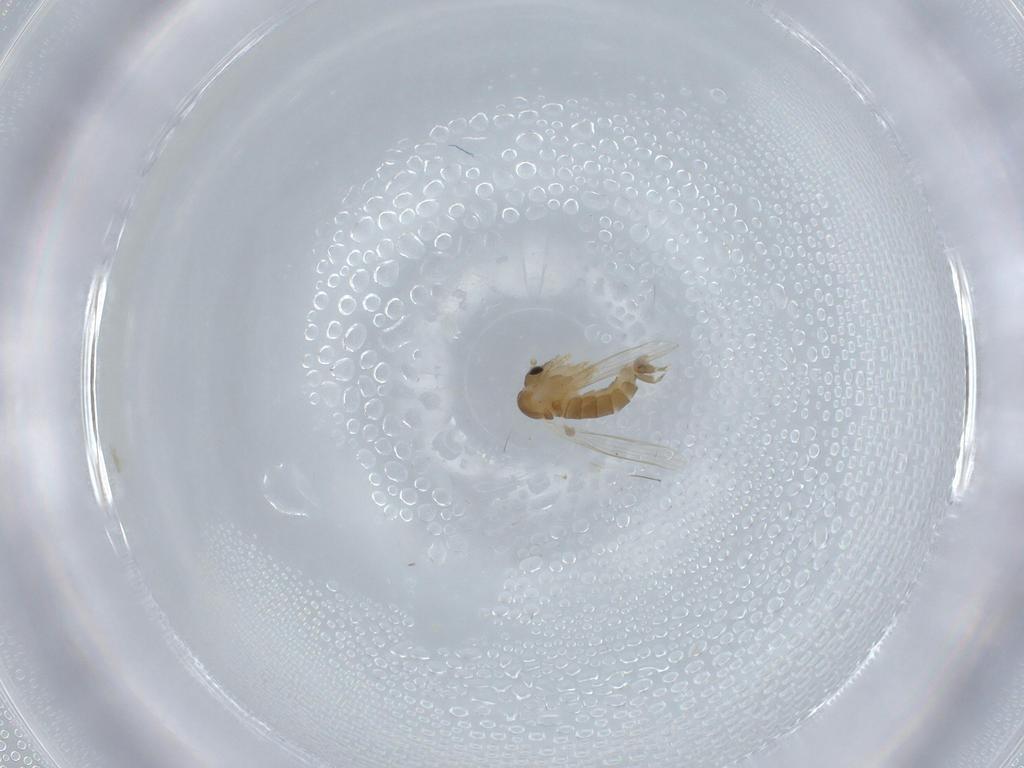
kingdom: Animalia
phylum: Arthropoda
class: Insecta
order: Diptera
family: Psychodidae
